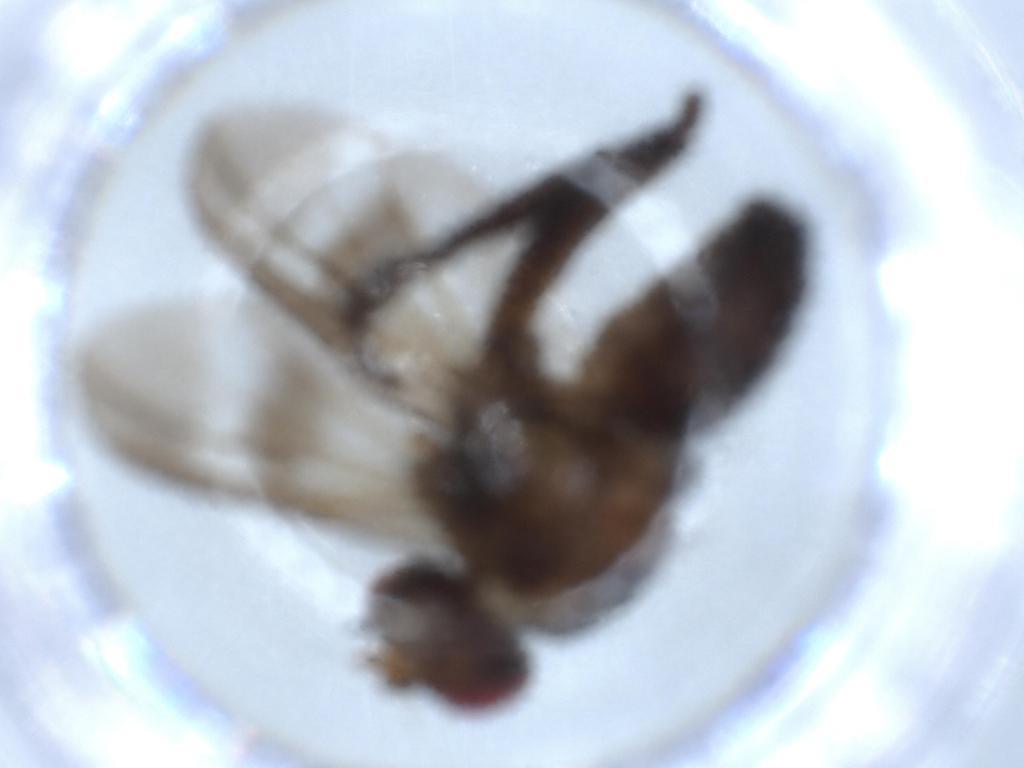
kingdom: Animalia
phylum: Arthropoda
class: Insecta
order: Diptera
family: Calliphoridae
